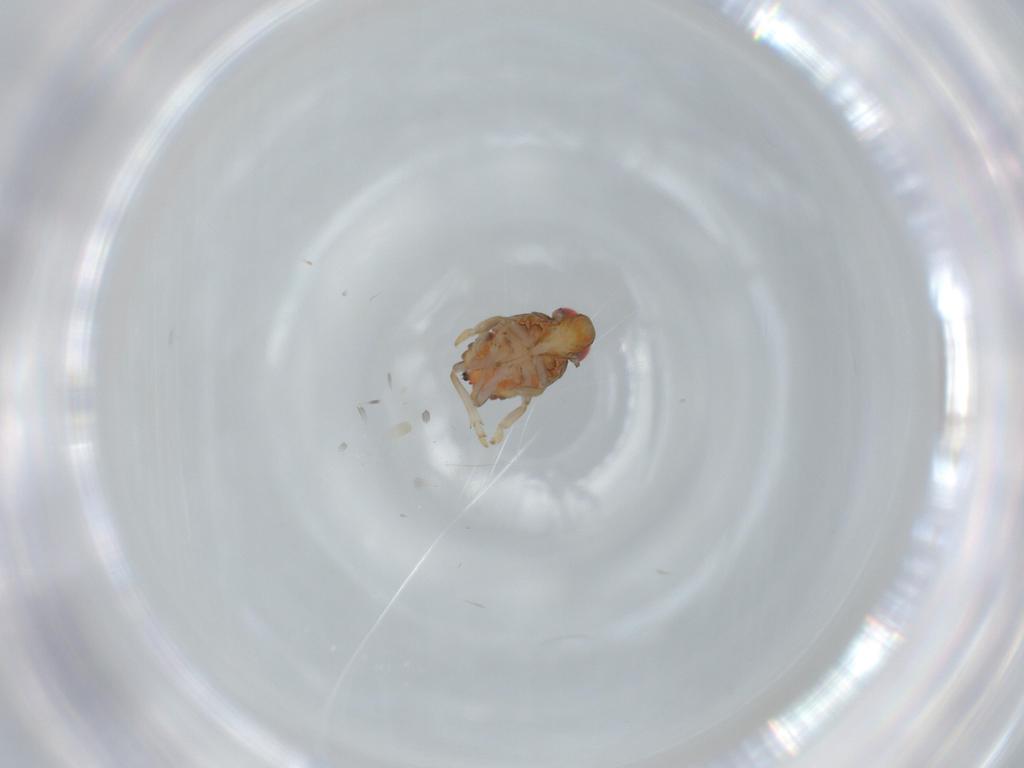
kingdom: Animalia
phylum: Arthropoda
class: Insecta
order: Hemiptera
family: Issidae
